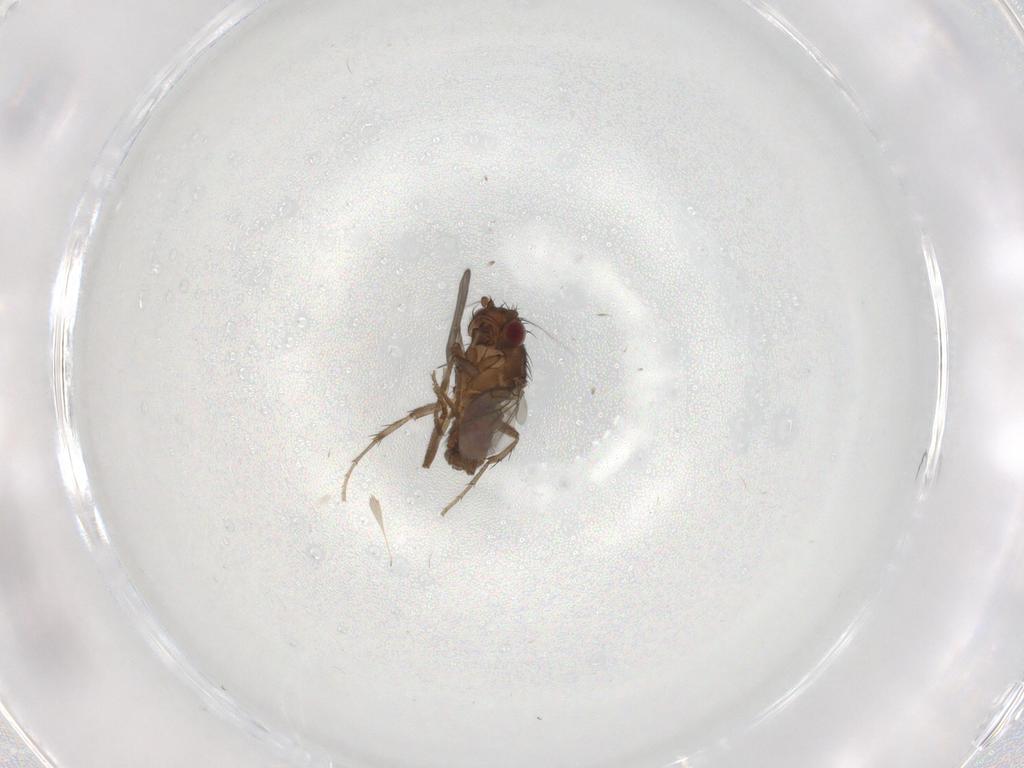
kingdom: Animalia
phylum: Arthropoda
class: Insecta
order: Diptera
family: Sphaeroceridae
